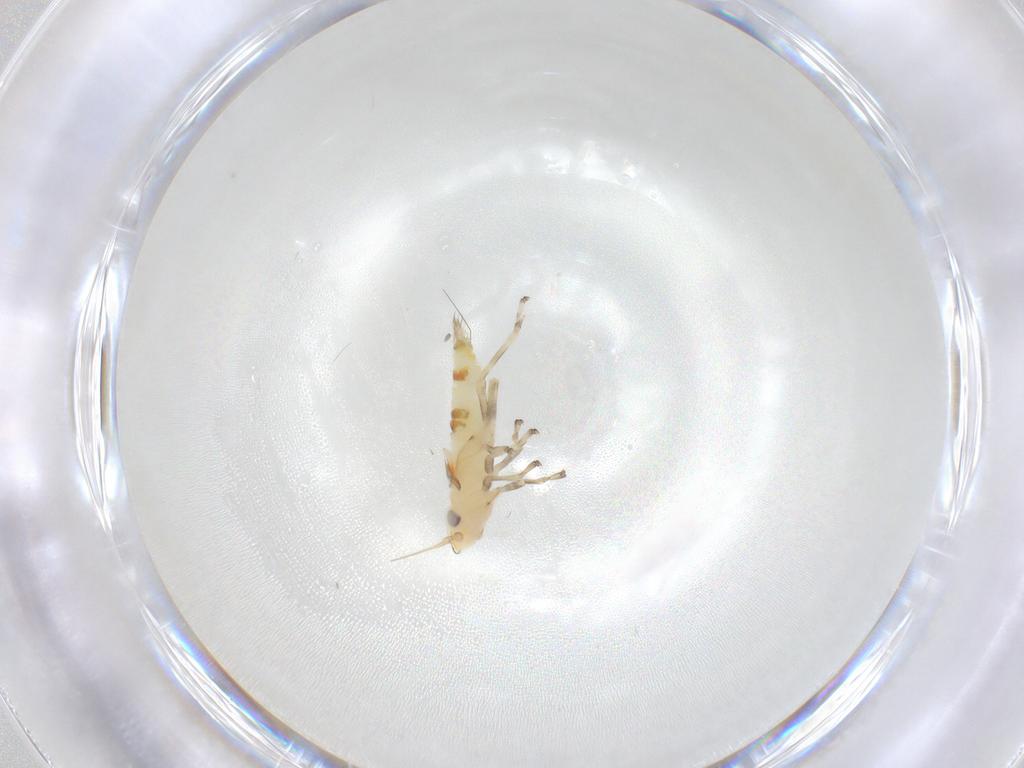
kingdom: Animalia
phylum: Arthropoda
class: Insecta
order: Hemiptera
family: Cicadellidae
